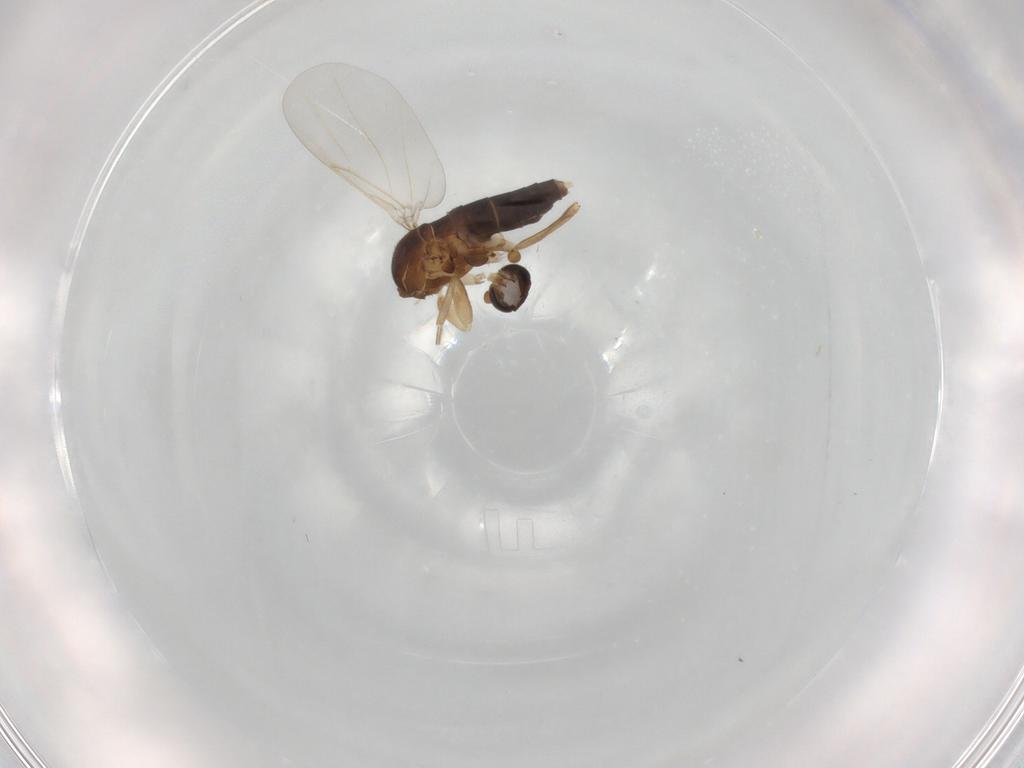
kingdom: Animalia
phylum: Arthropoda
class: Insecta
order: Diptera
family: Phoridae
